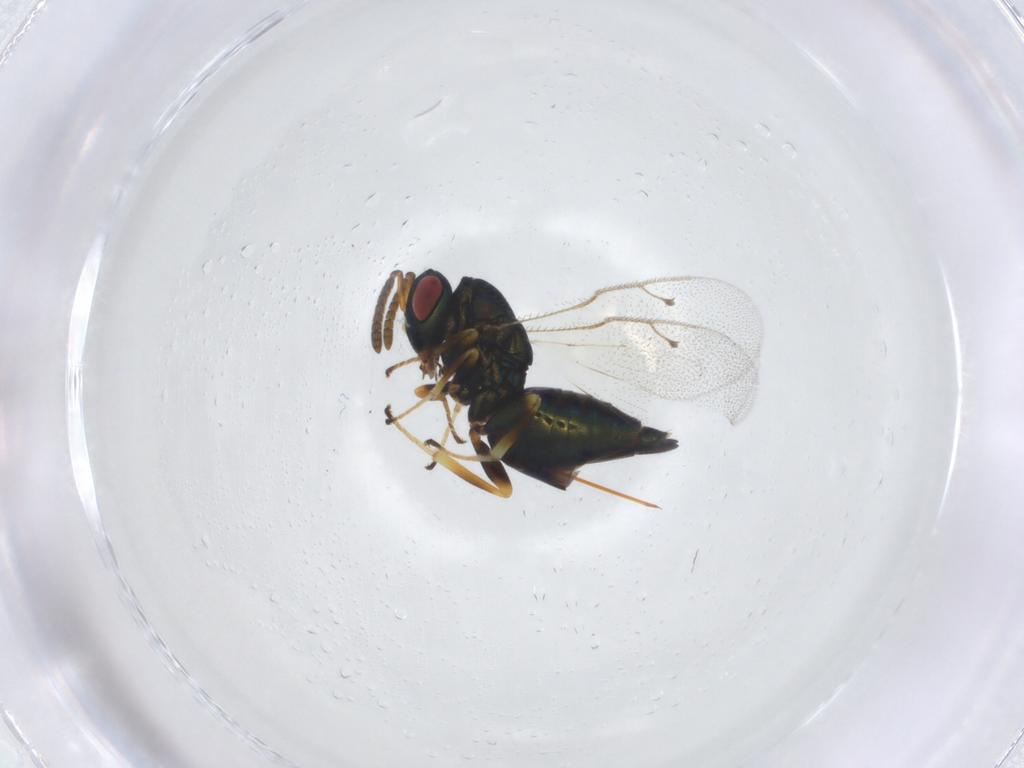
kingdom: Animalia
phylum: Arthropoda
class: Insecta
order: Hymenoptera
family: Pteromalidae
